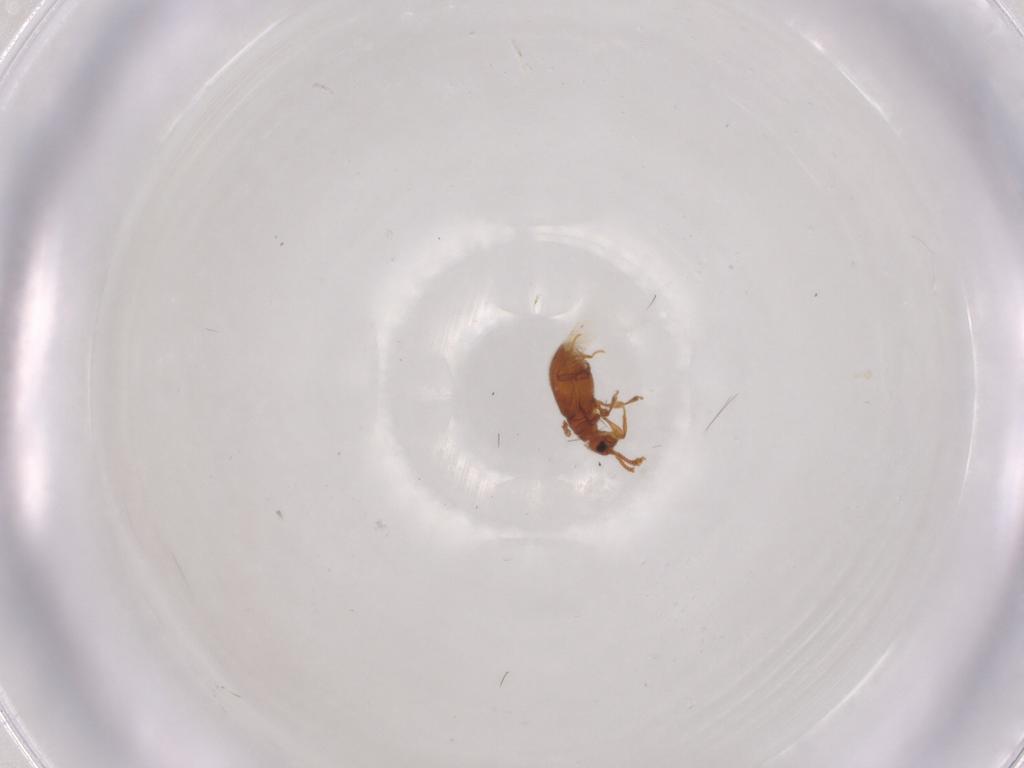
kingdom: Animalia
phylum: Arthropoda
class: Insecta
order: Coleoptera
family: Staphylinidae
